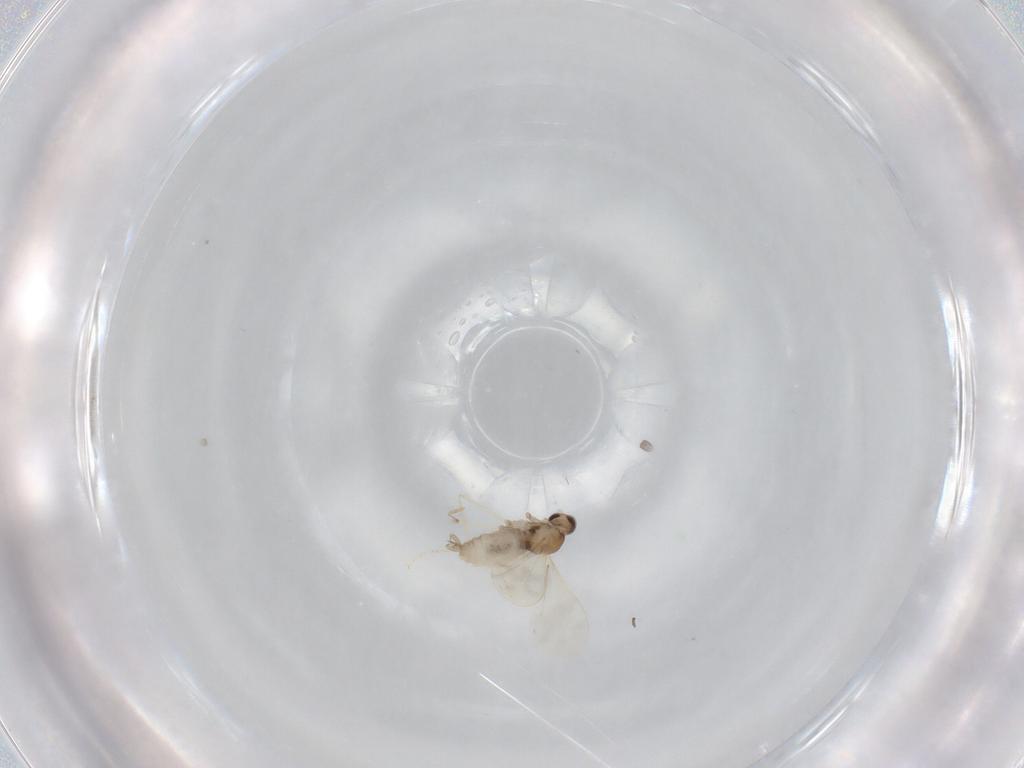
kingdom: Animalia
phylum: Arthropoda
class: Insecta
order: Diptera
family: Cecidomyiidae
